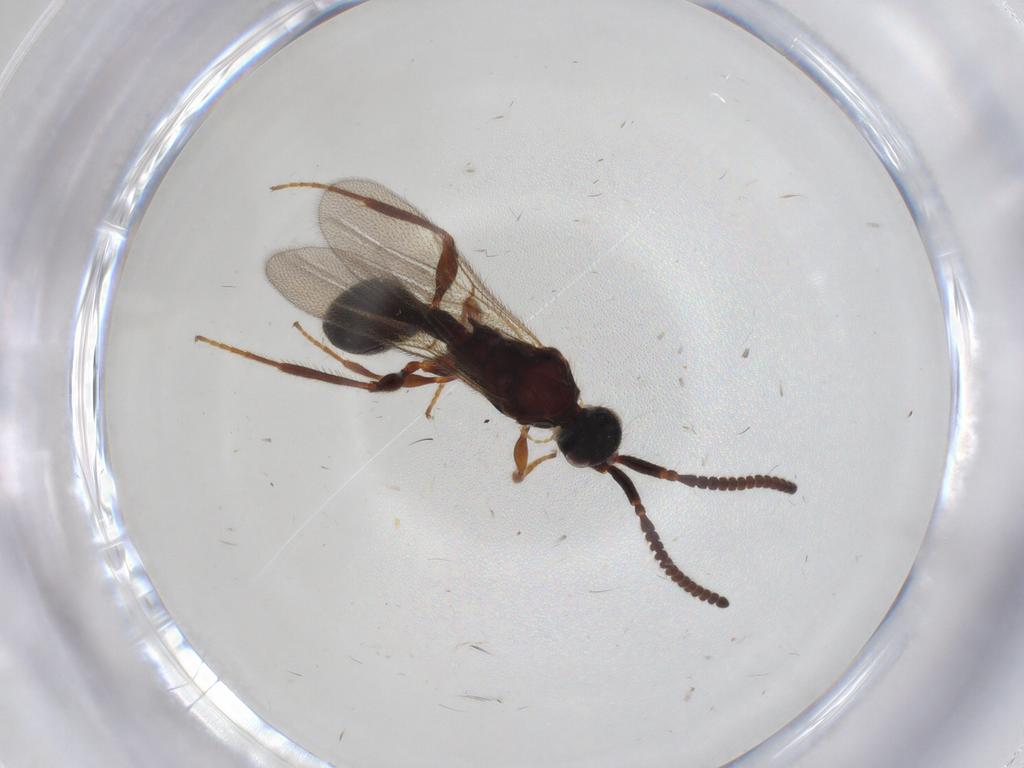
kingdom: Animalia
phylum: Arthropoda
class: Insecta
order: Hymenoptera
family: Diapriidae
